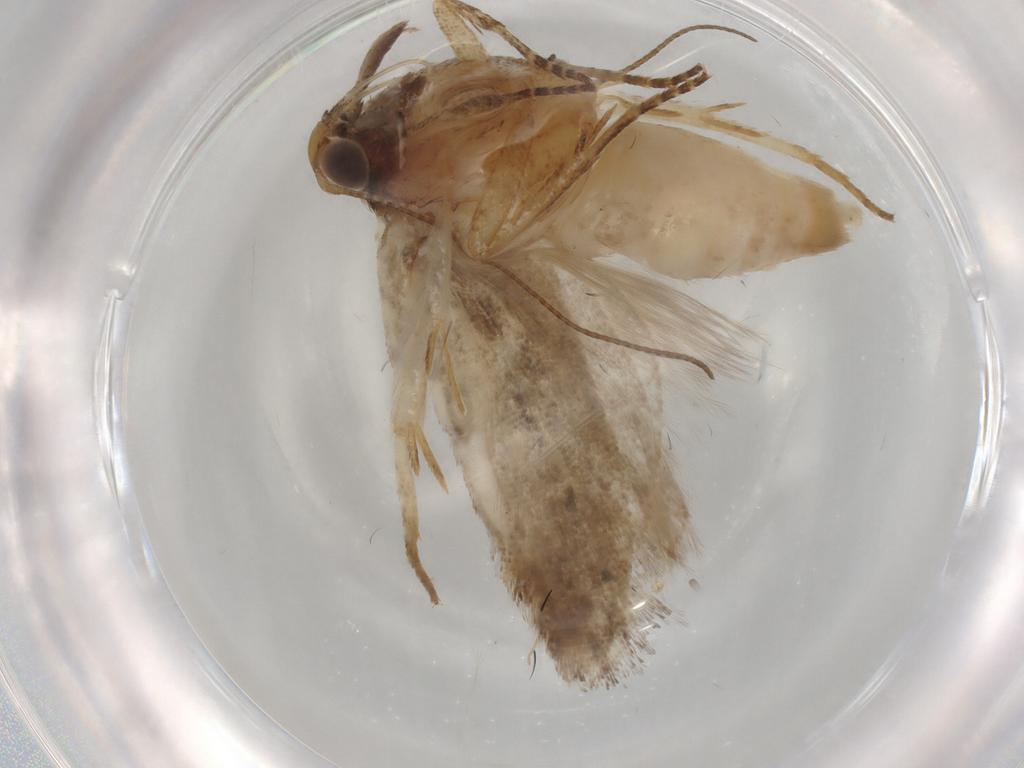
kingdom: Animalia
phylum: Arthropoda
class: Insecta
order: Lepidoptera
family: Gelechiidae
